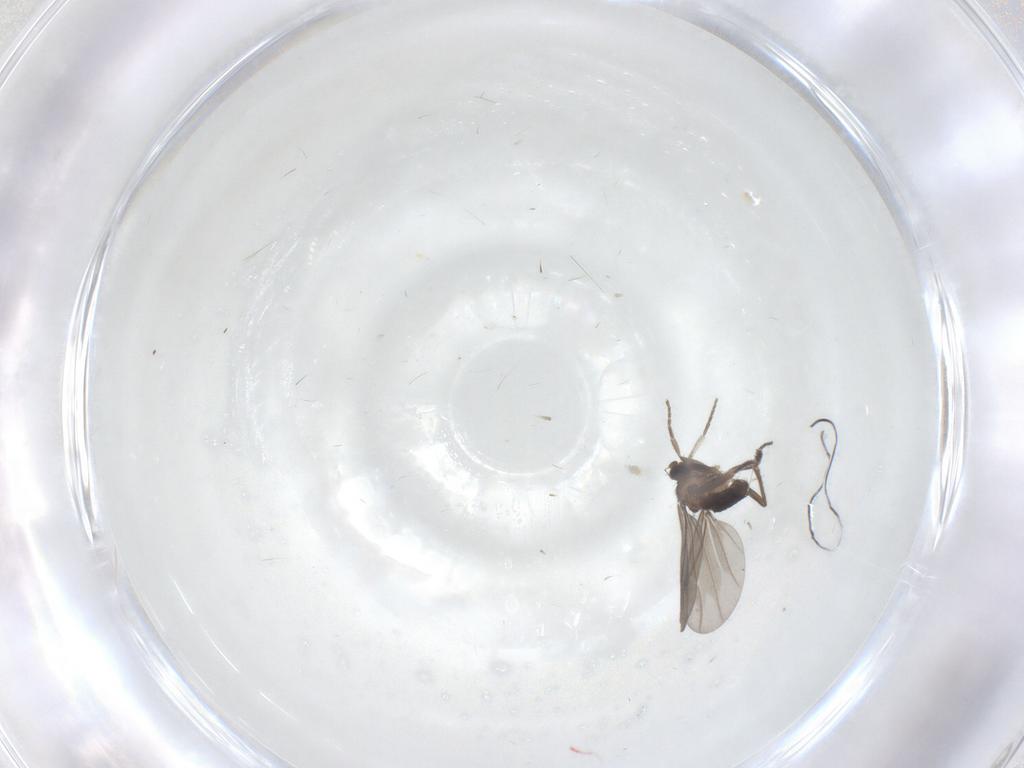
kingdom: Animalia
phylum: Arthropoda
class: Insecta
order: Diptera
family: Phoridae
